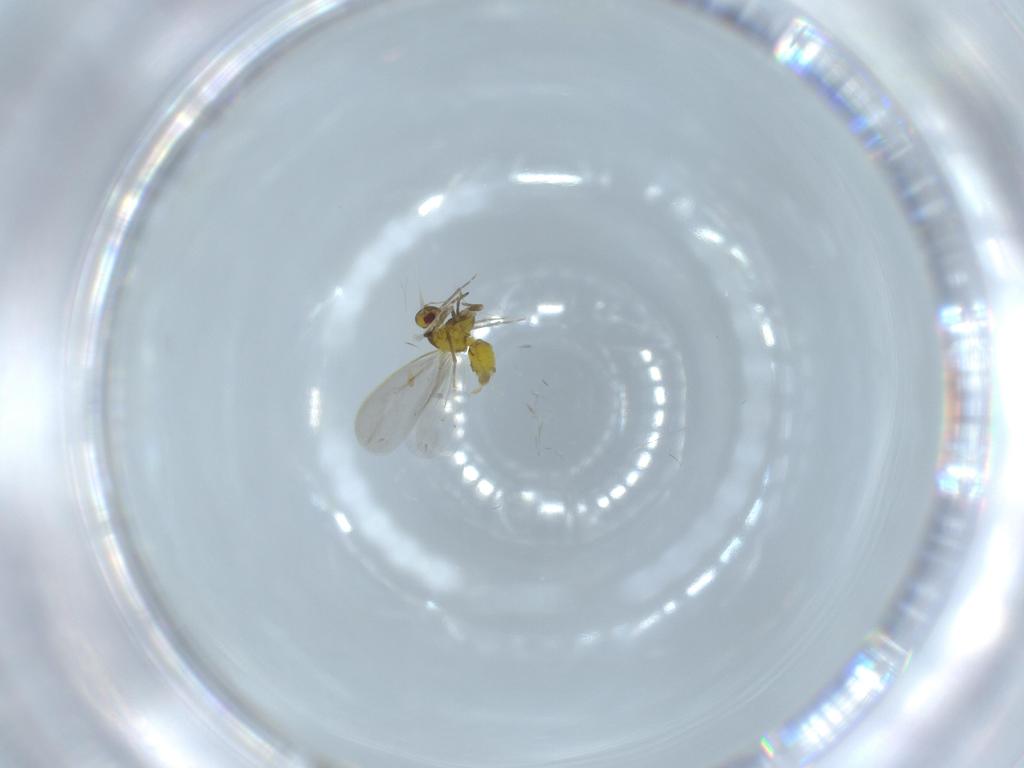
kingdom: Animalia
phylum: Arthropoda
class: Insecta
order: Hemiptera
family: Aleyrodidae
